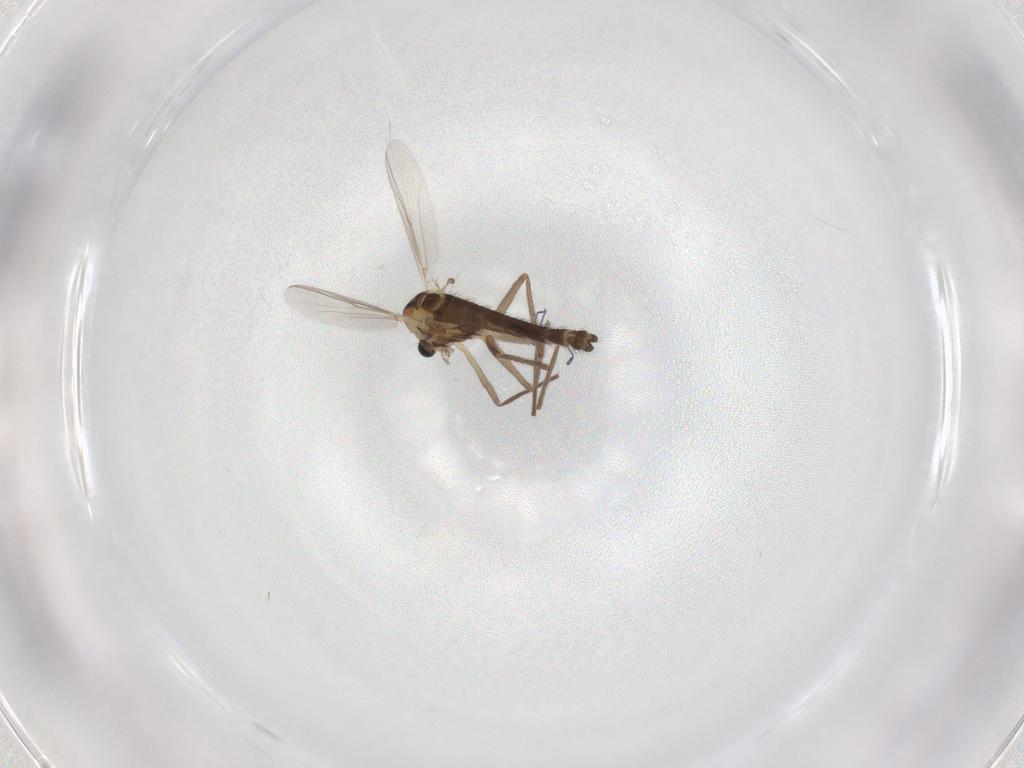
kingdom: Animalia
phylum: Arthropoda
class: Insecta
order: Diptera
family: Chironomidae
